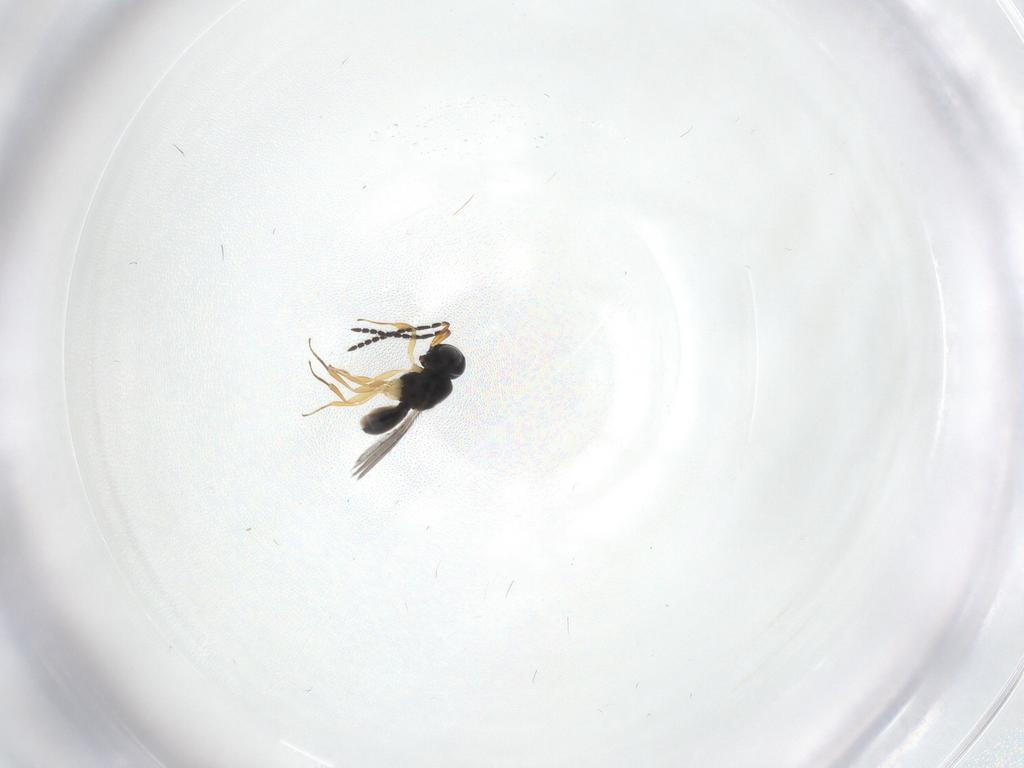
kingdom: Animalia
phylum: Arthropoda
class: Insecta
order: Hymenoptera
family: Scelionidae
